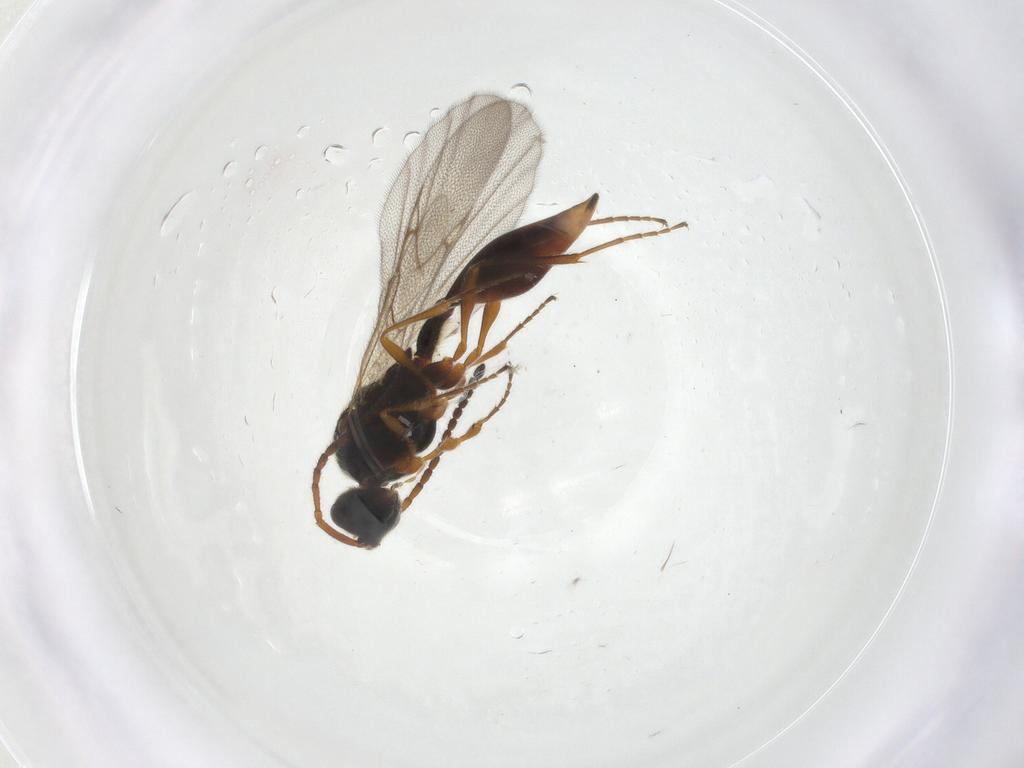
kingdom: Animalia
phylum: Arthropoda
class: Insecta
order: Hymenoptera
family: Diapriidae
